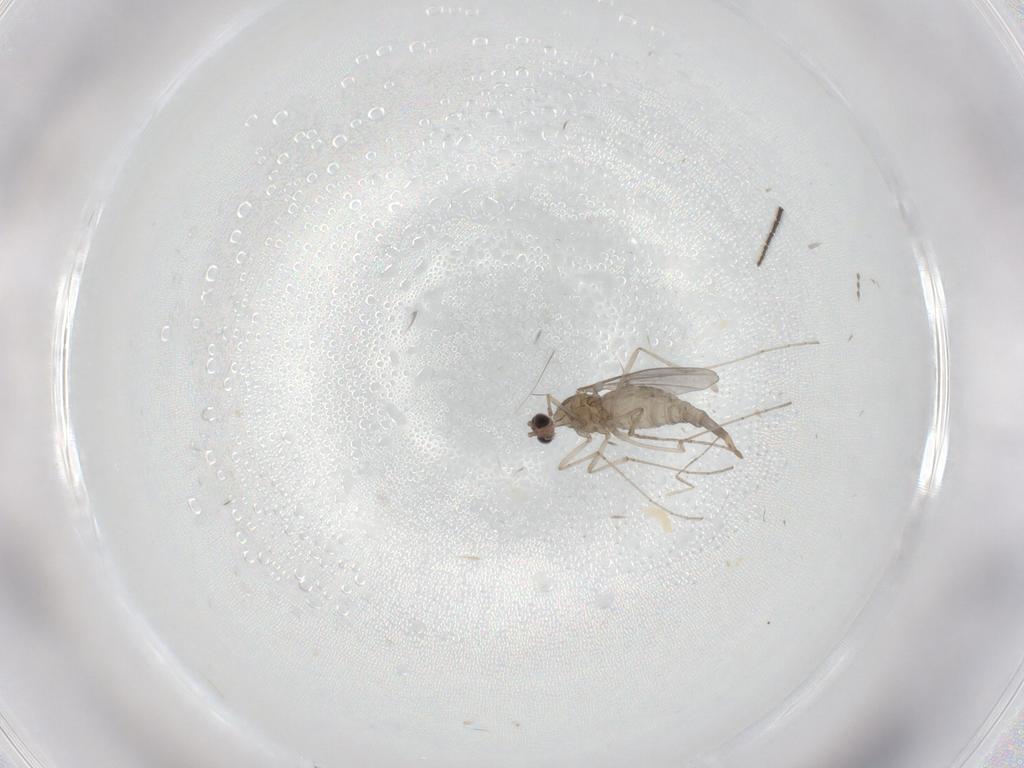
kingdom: Animalia
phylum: Arthropoda
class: Insecta
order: Diptera
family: Cecidomyiidae
